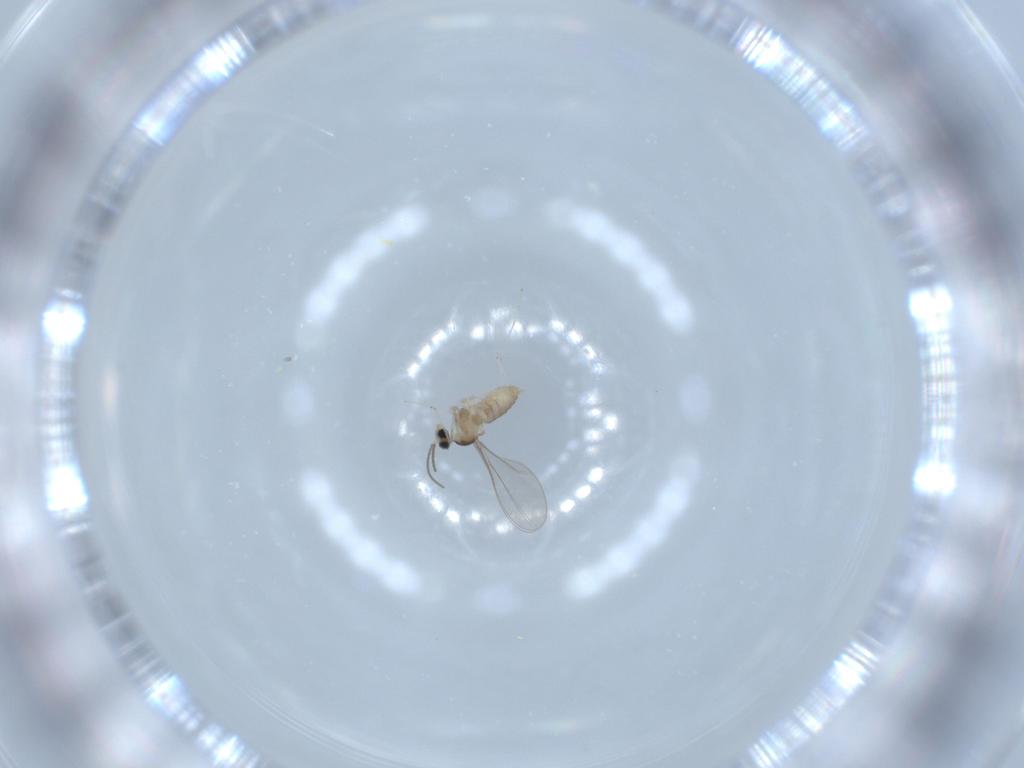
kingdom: Animalia
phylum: Arthropoda
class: Insecta
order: Diptera
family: Cecidomyiidae
